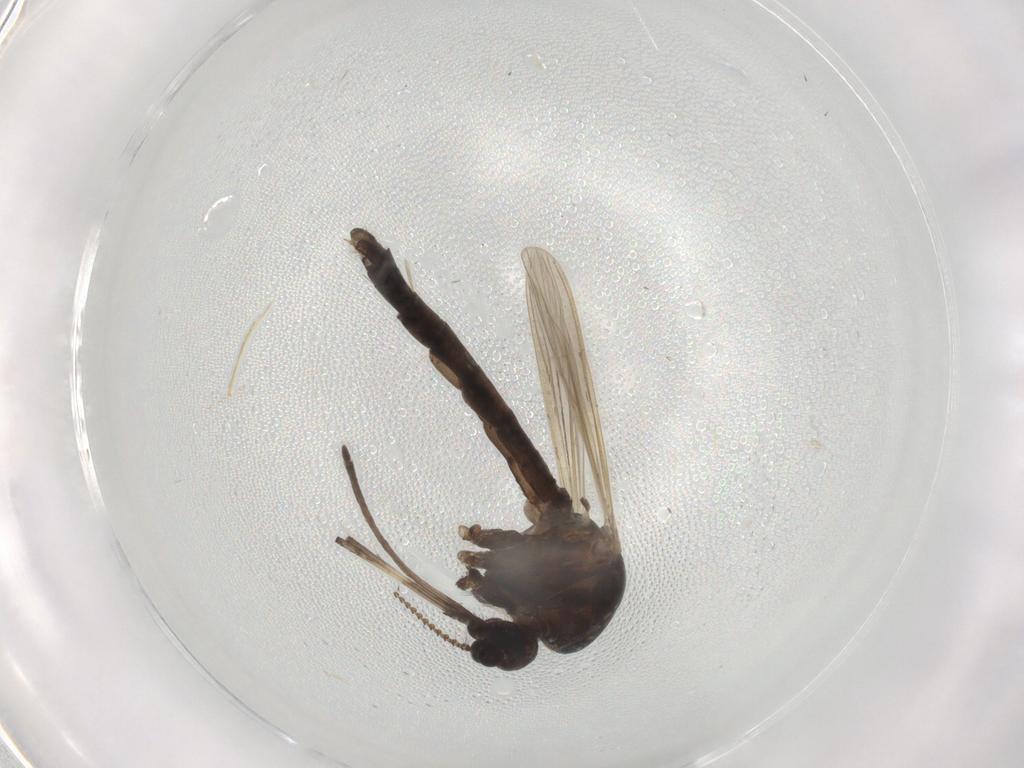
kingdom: Animalia
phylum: Arthropoda
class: Insecta
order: Diptera
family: Culicidae
